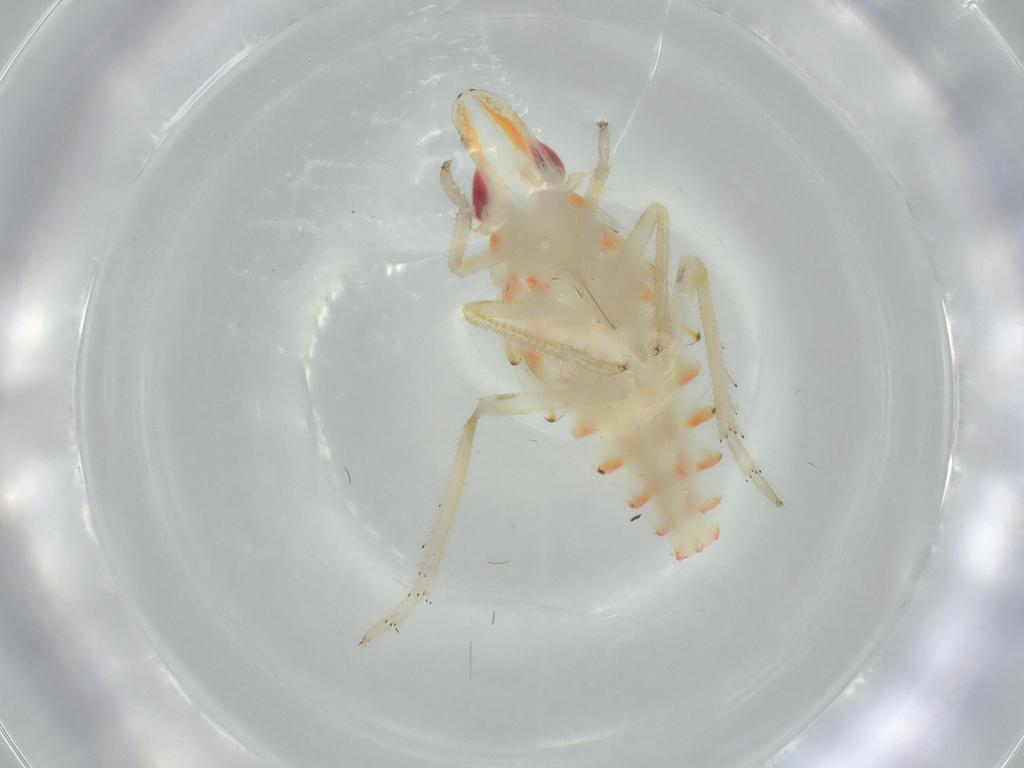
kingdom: Animalia
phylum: Arthropoda
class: Insecta
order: Hemiptera
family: Tropiduchidae
